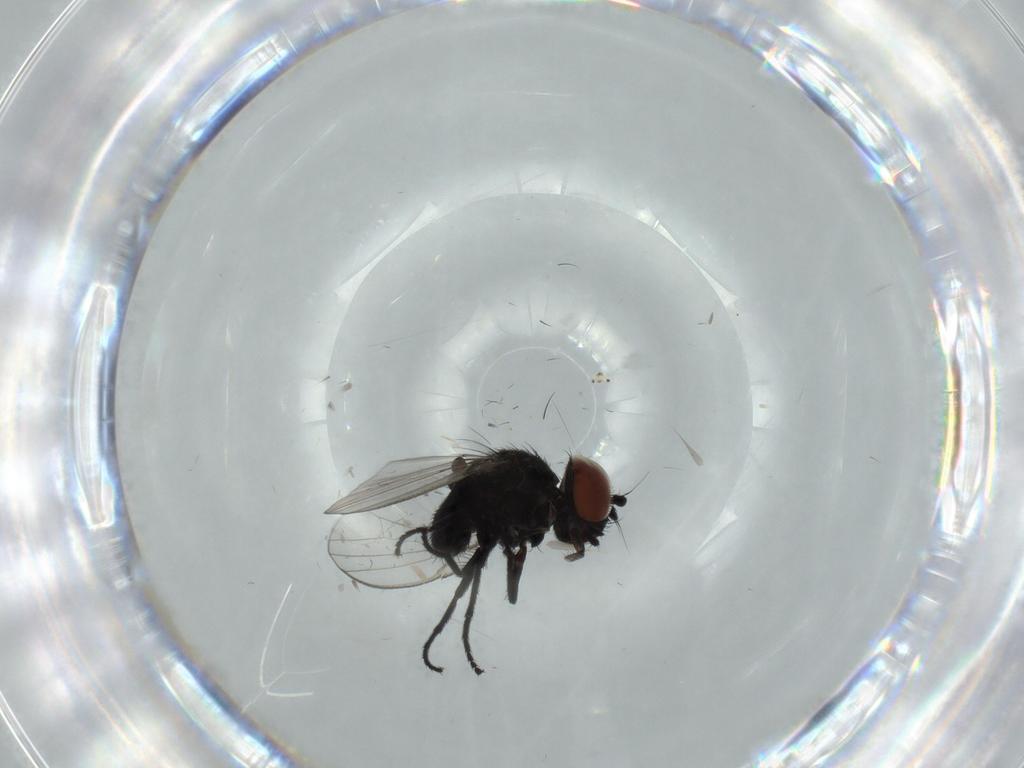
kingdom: Animalia
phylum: Arthropoda
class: Insecta
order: Diptera
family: Milichiidae
